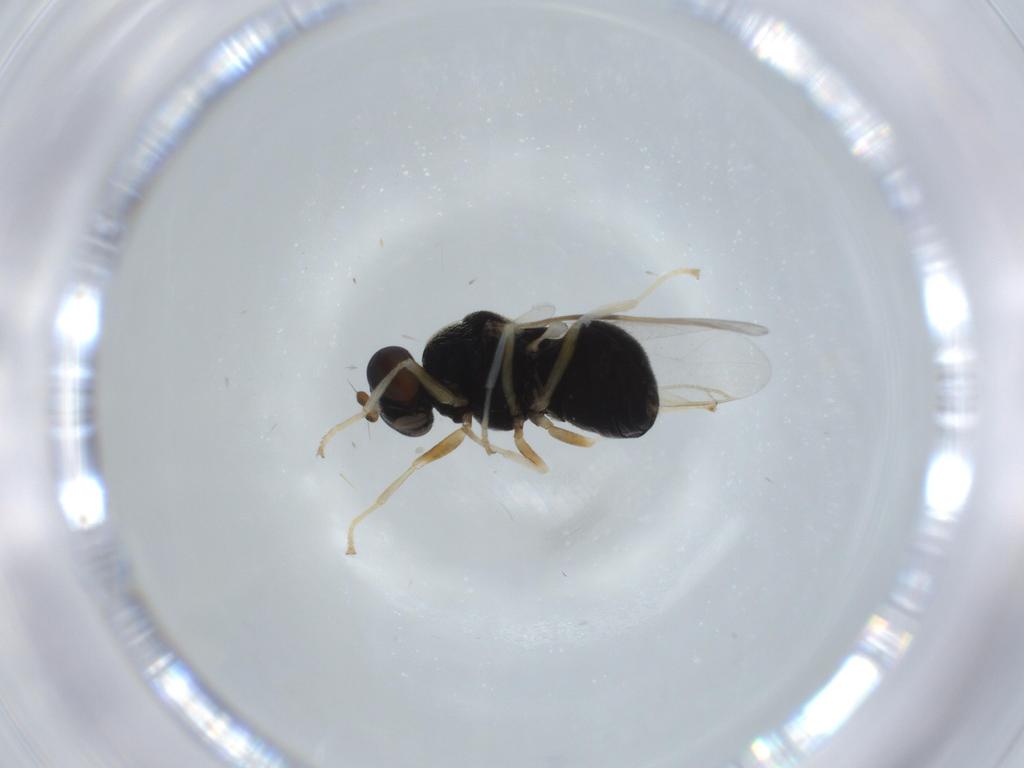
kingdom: Animalia
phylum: Arthropoda
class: Insecta
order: Diptera
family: Stratiomyidae
